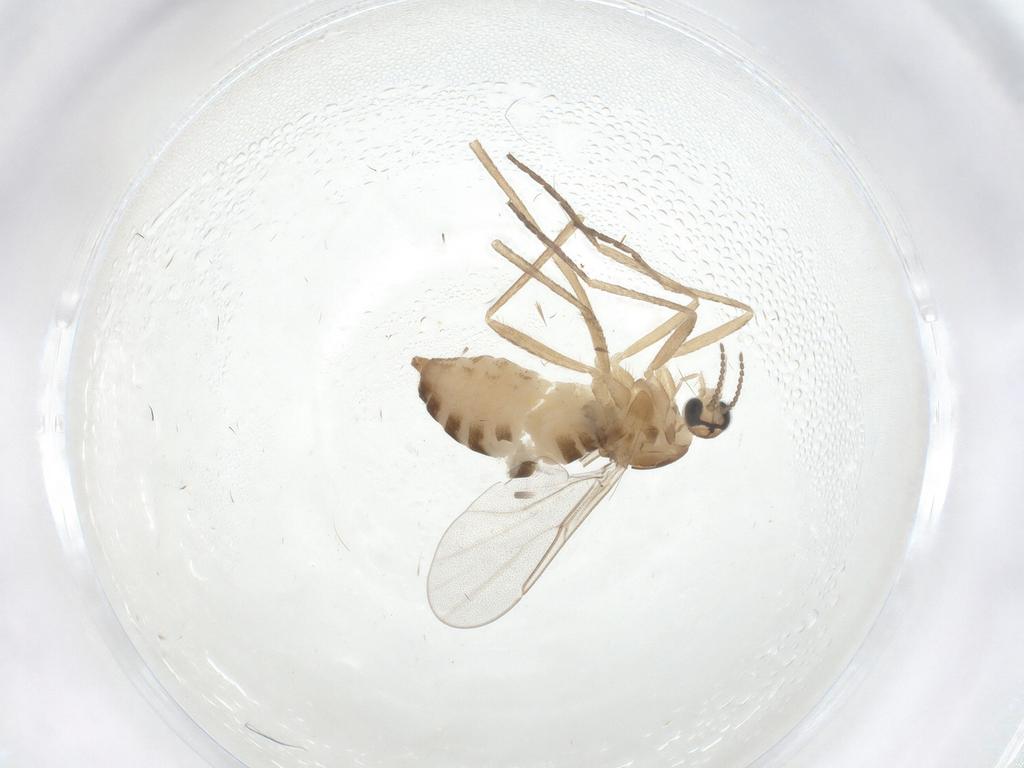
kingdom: Animalia
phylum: Arthropoda
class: Insecta
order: Diptera
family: Cecidomyiidae
